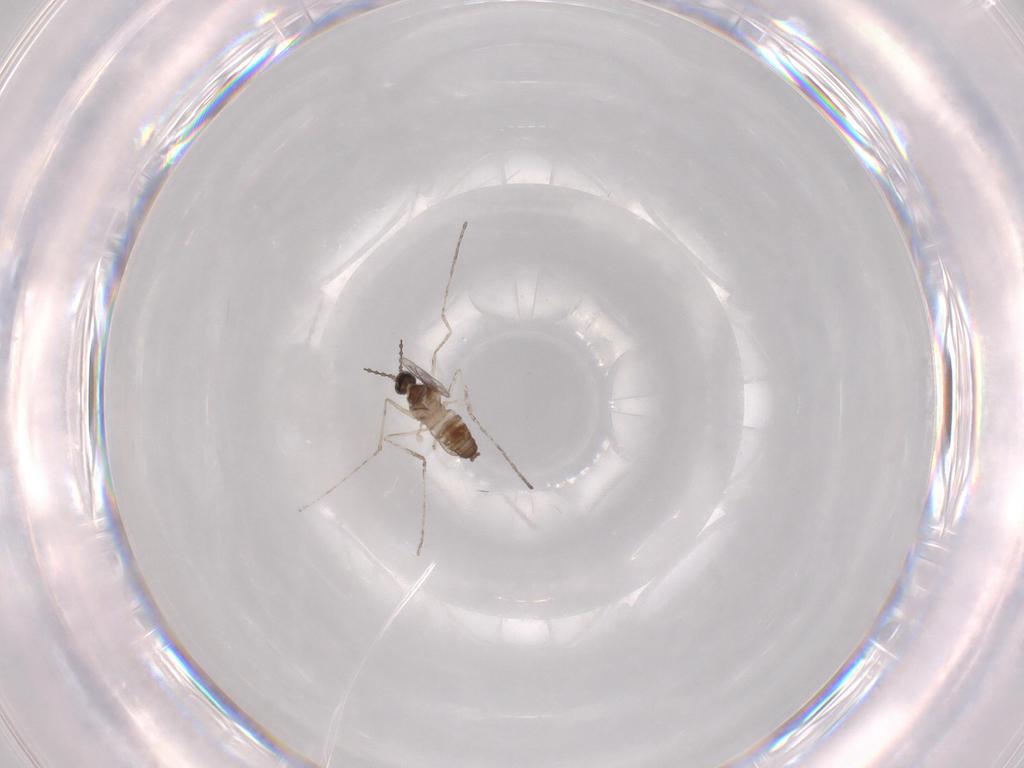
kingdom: Animalia
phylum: Arthropoda
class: Insecta
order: Diptera
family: Cecidomyiidae
